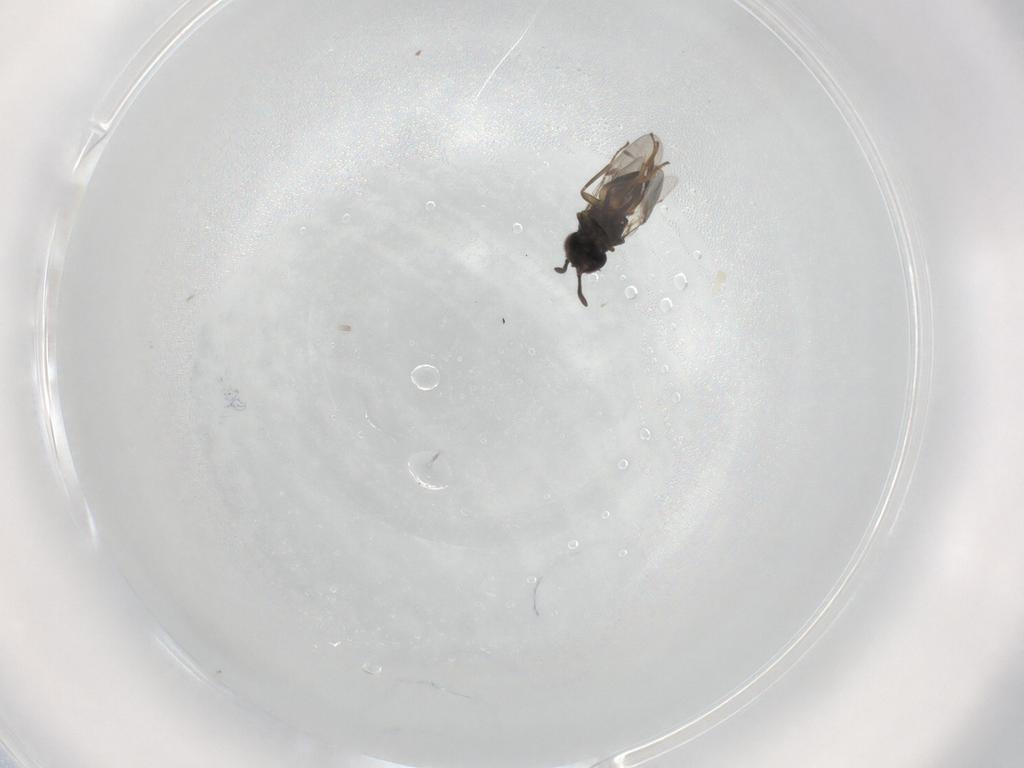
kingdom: Animalia
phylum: Arthropoda
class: Insecta
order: Hymenoptera
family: Encyrtidae
